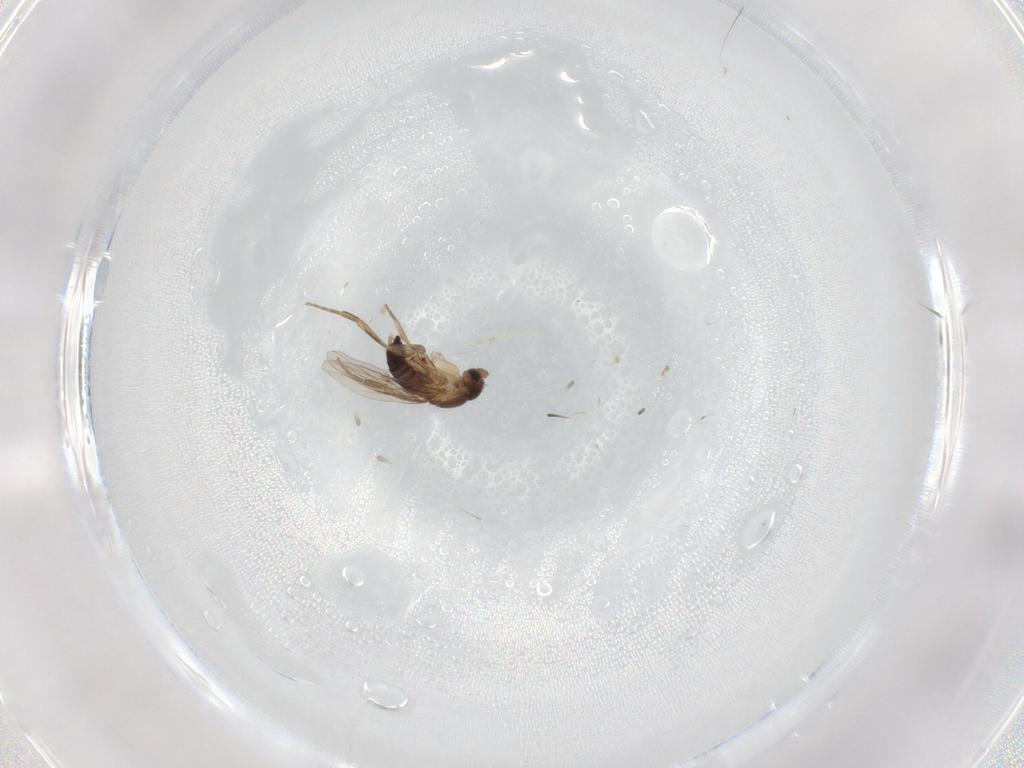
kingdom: Animalia
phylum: Arthropoda
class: Insecta
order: Diptera
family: Phoridae
